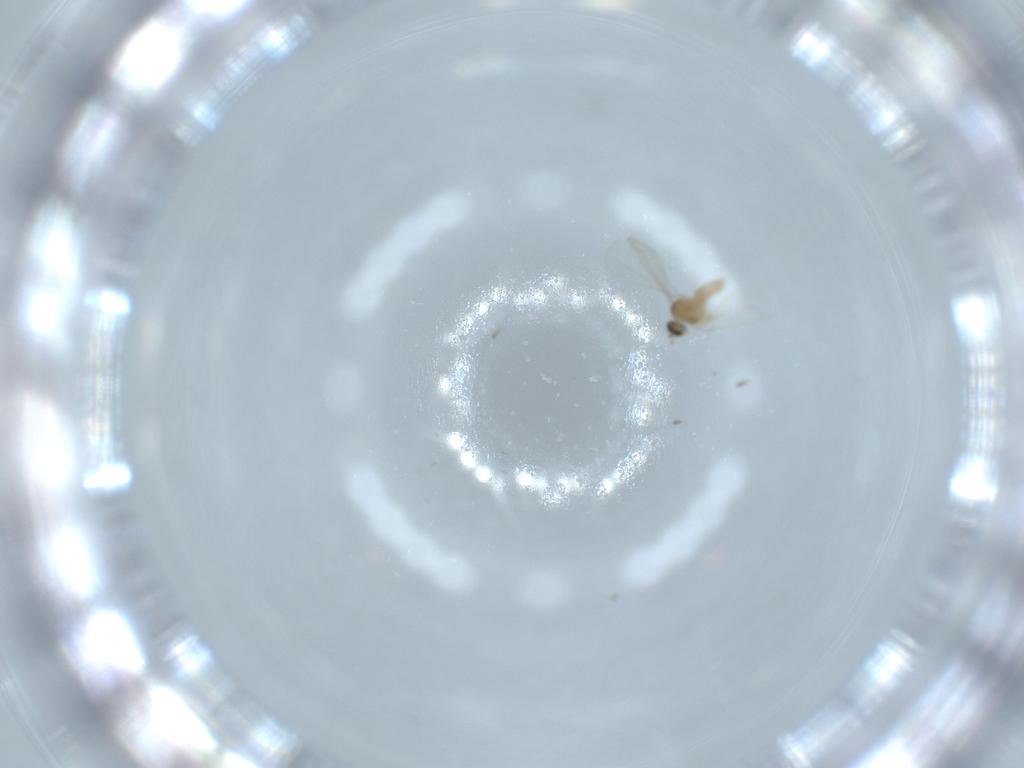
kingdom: Animalia
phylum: Arthropoda
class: Insecta
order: Diptera
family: Cecidomyiidae
